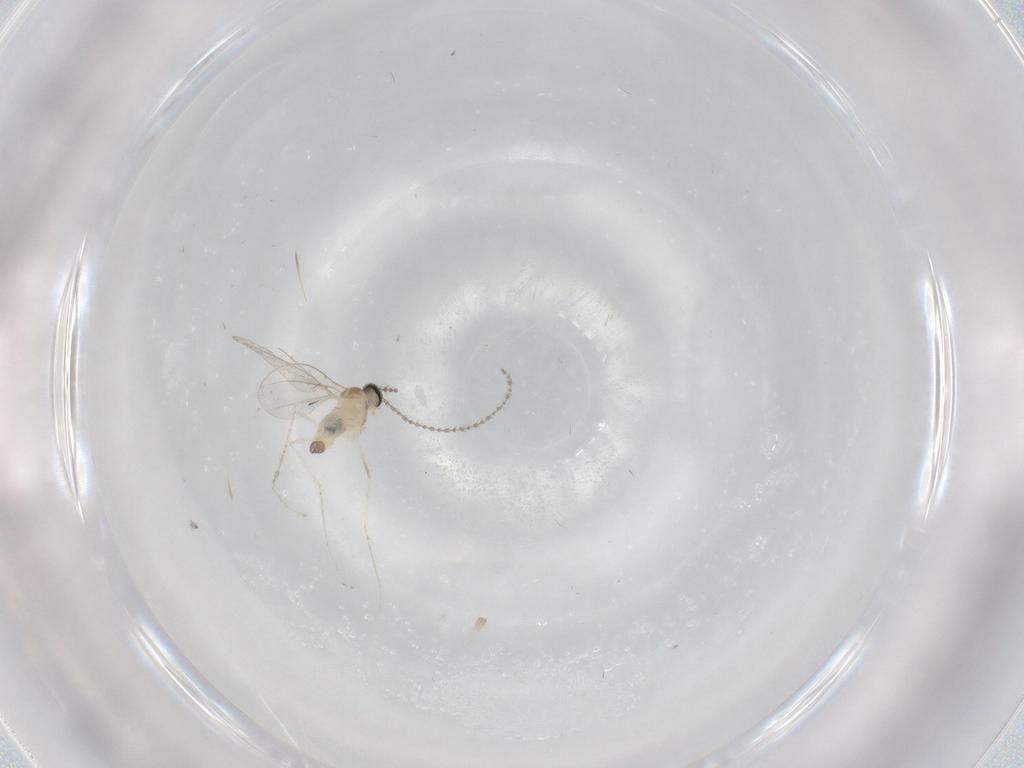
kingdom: Animalia
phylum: Arthropoda
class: Insecta
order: Diptera
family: Cecidomyiidae
